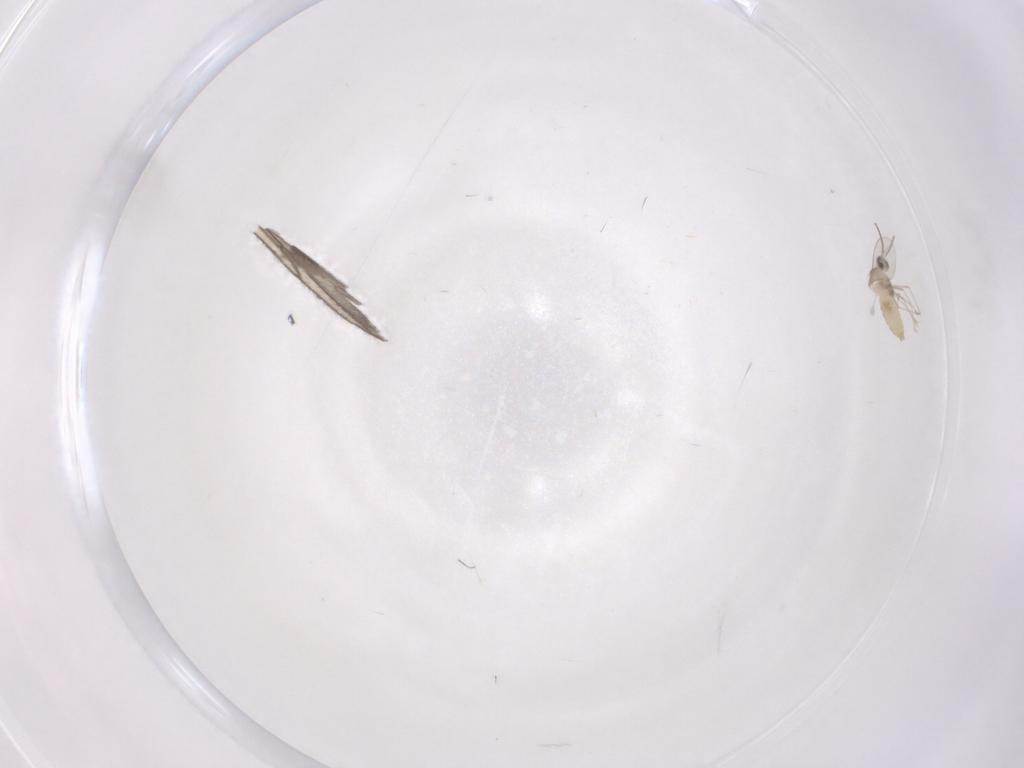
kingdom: Animalia
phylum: Arthropoda
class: Insecta
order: Diptera
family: Cecidomyiidae
